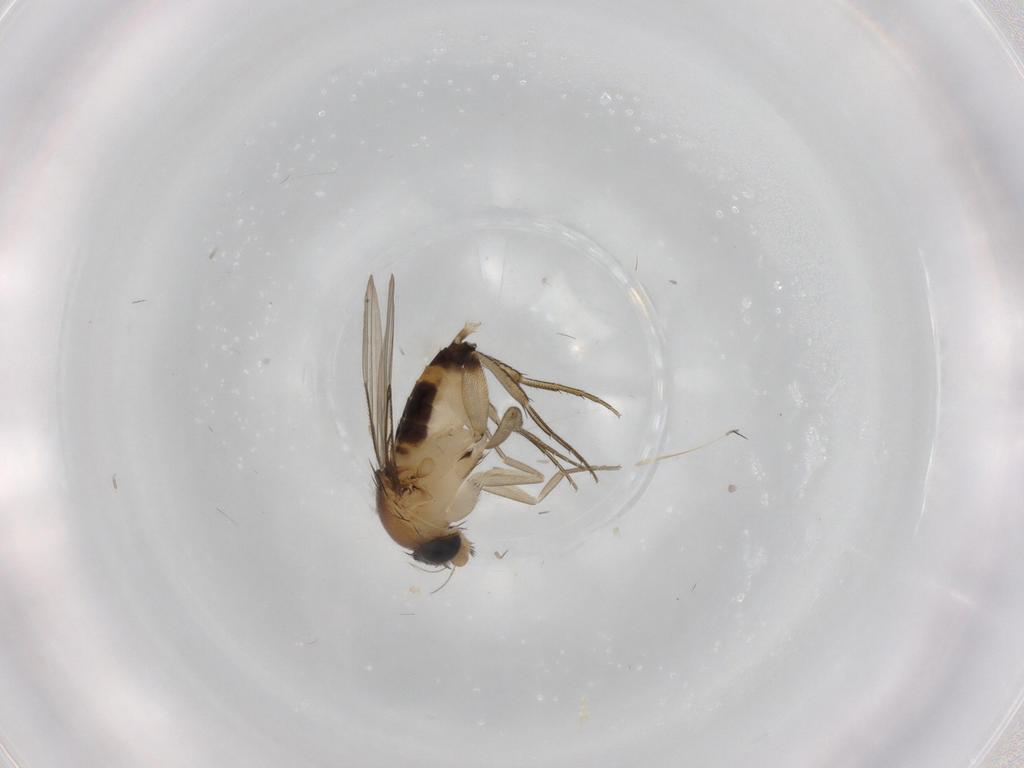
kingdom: Animalia
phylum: Arthropoda
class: Insecta
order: Diptera
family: Phoridae
